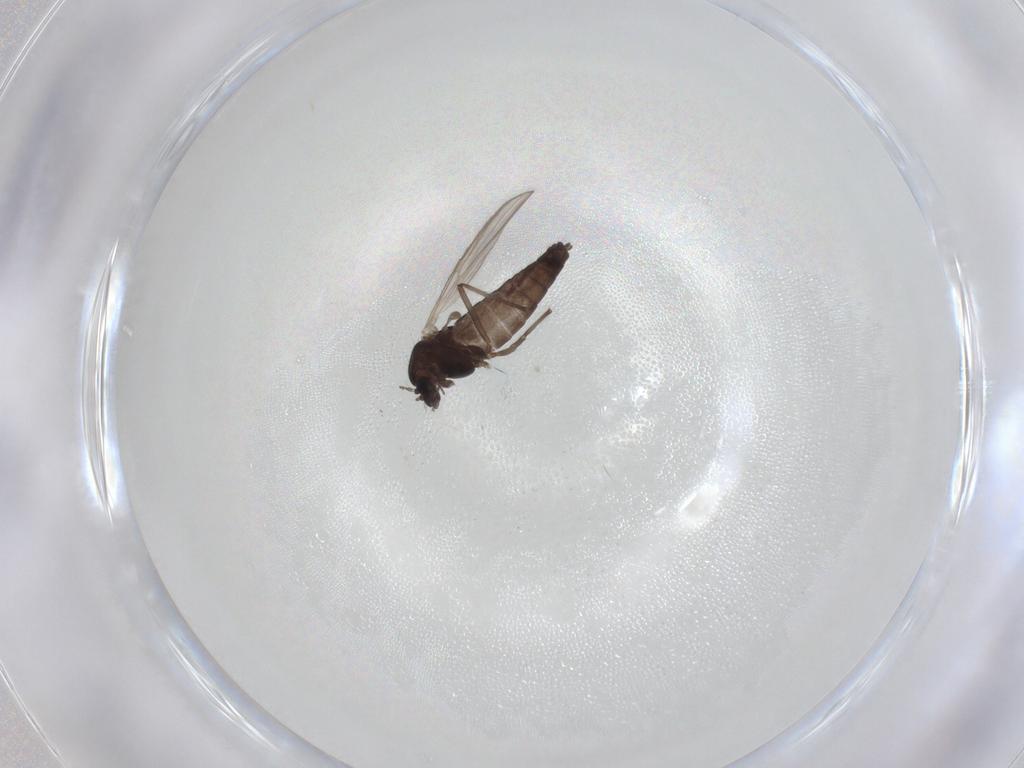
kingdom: Animalia
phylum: Arthropoda
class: Insecta
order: Diptera
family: Chironomidae
